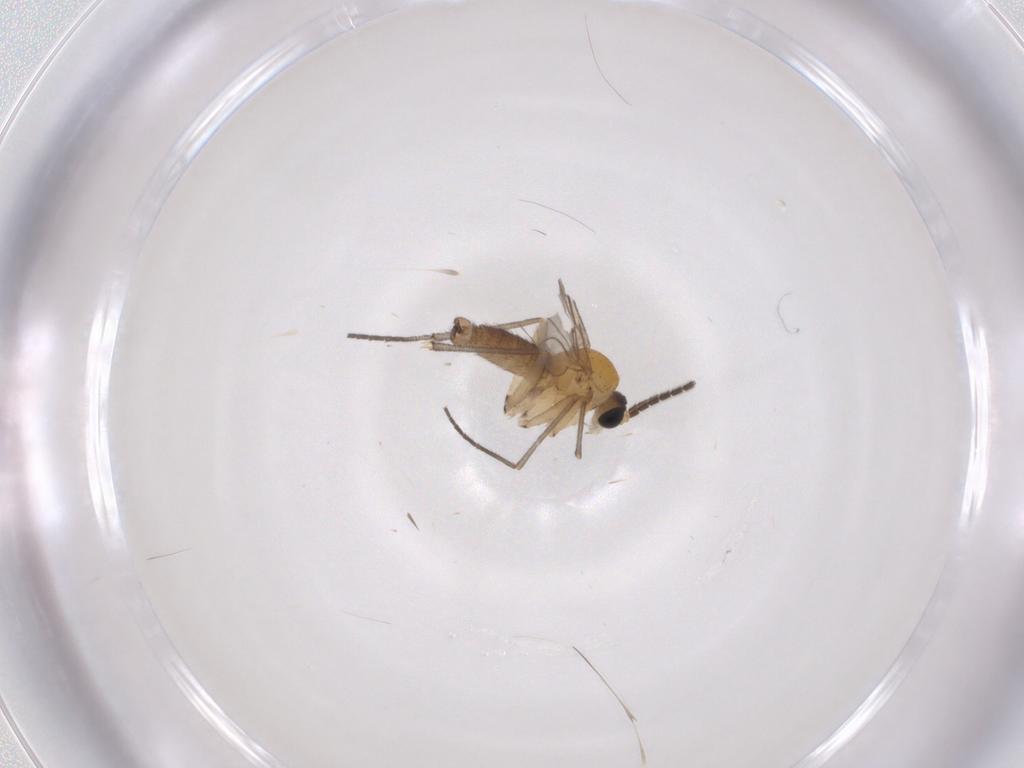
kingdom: Animalia
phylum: Arthropoda
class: Insecta
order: Diptera
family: Sciaridae
